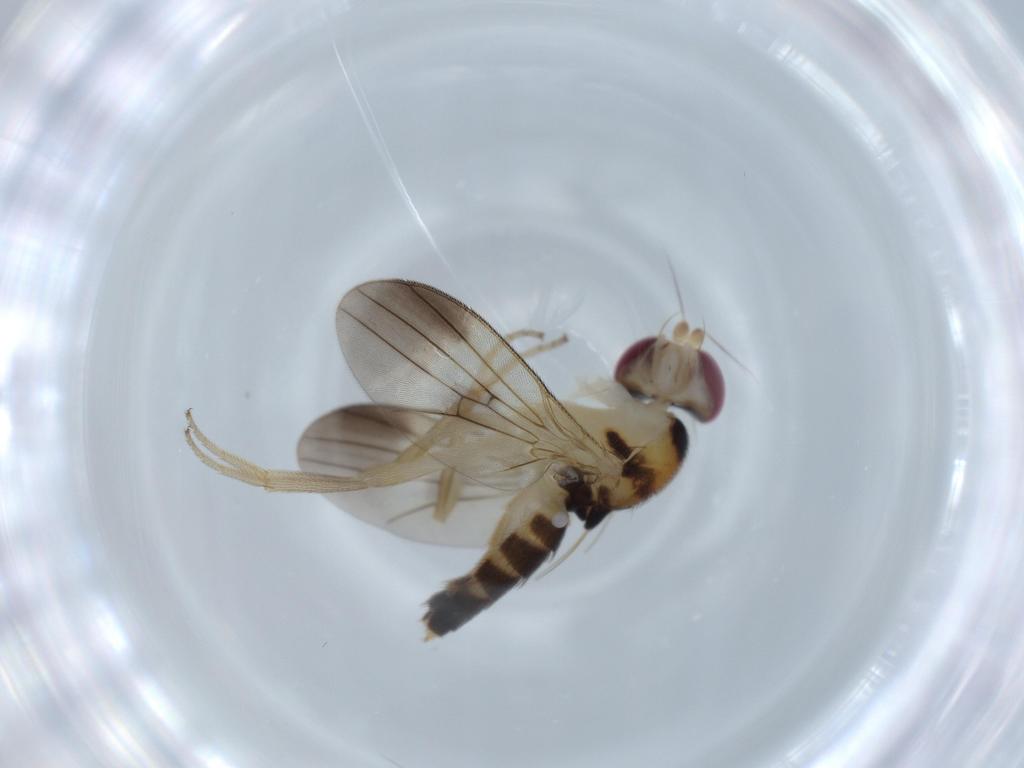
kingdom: Animalia
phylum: Arthropoda
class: Insecta
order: Diptera
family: Clusiidae
